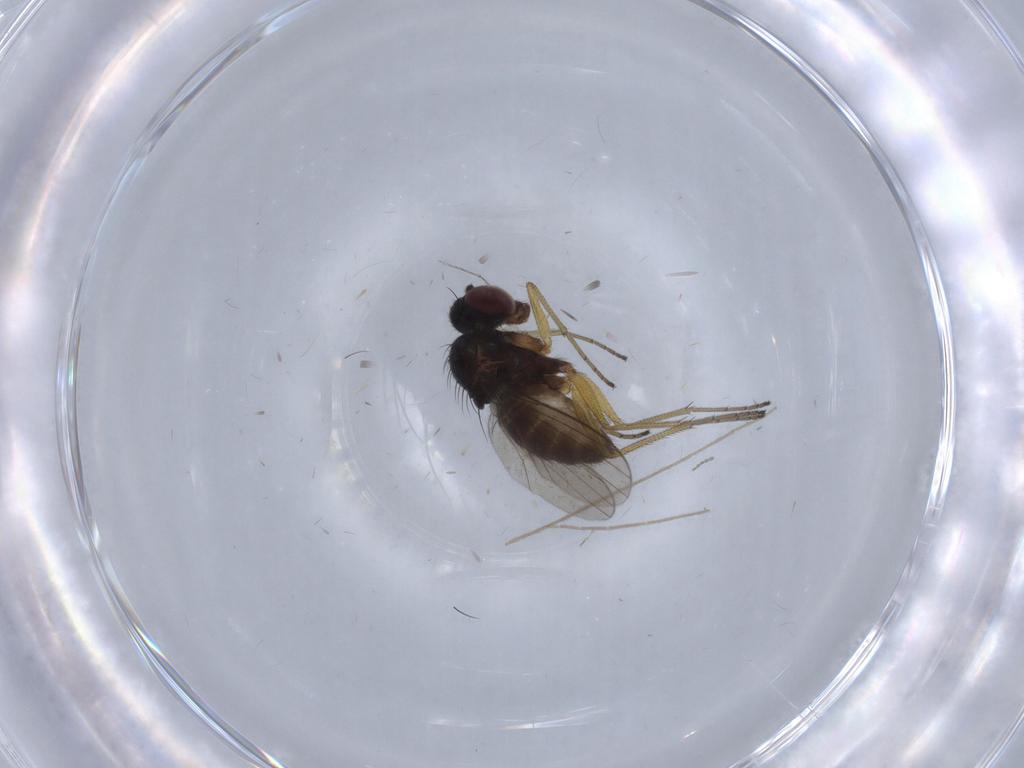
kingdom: Animalia
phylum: Arthropoda
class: Insecta
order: Diptera
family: Dolichopodidae
